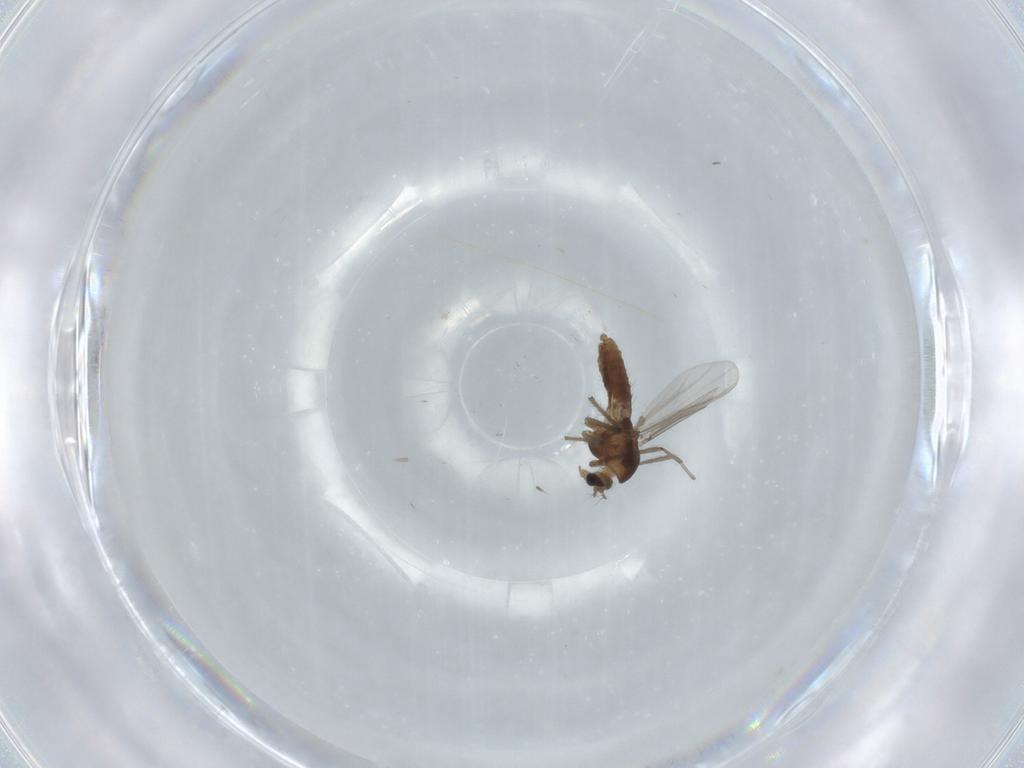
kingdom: Animalia
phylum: Arthropoda
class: Insecta
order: Diptera
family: Chironomidae
